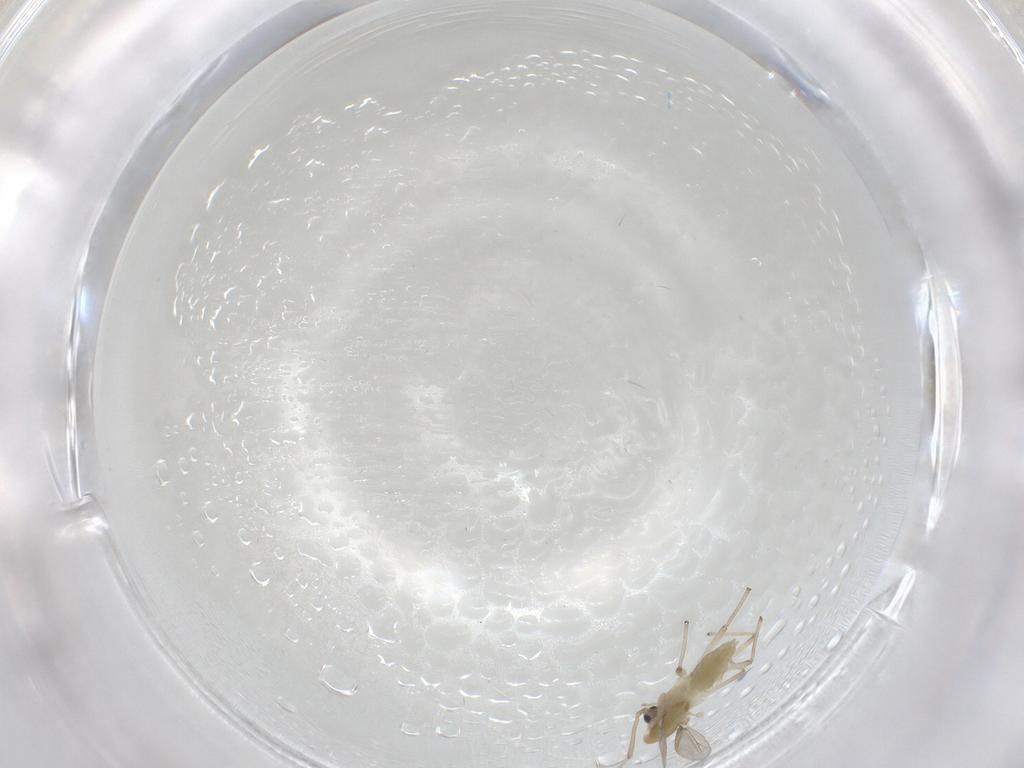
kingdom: Animalia
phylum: Arthropoda
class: Insecta
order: Diptera
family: Chironomidae
